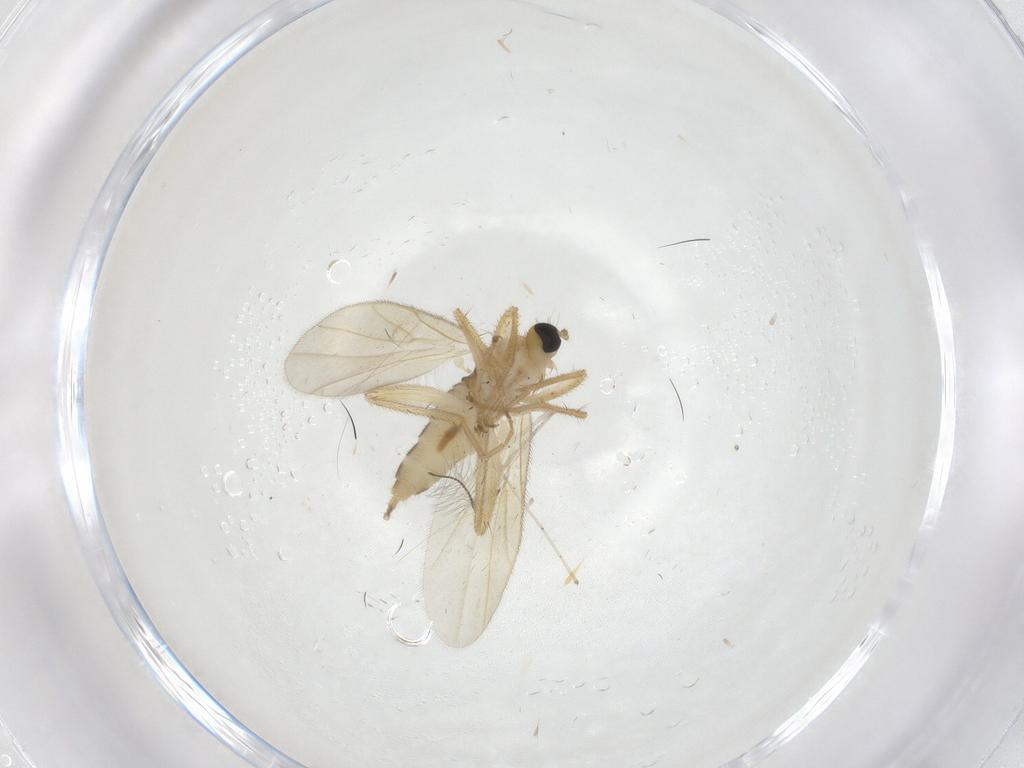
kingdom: Animalia
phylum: Arthropoda
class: Insecta
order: Diptera
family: Hybotidae
